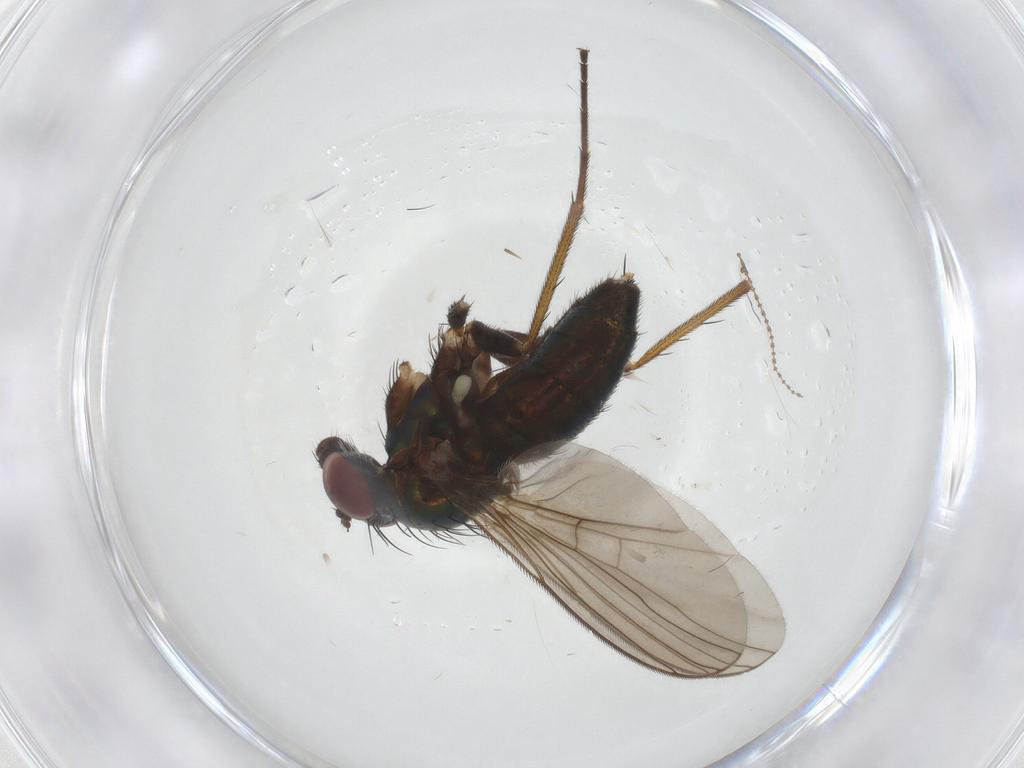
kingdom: Animalia
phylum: Arthropoda
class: Insecta
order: Diptera
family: Dolichopodidae
